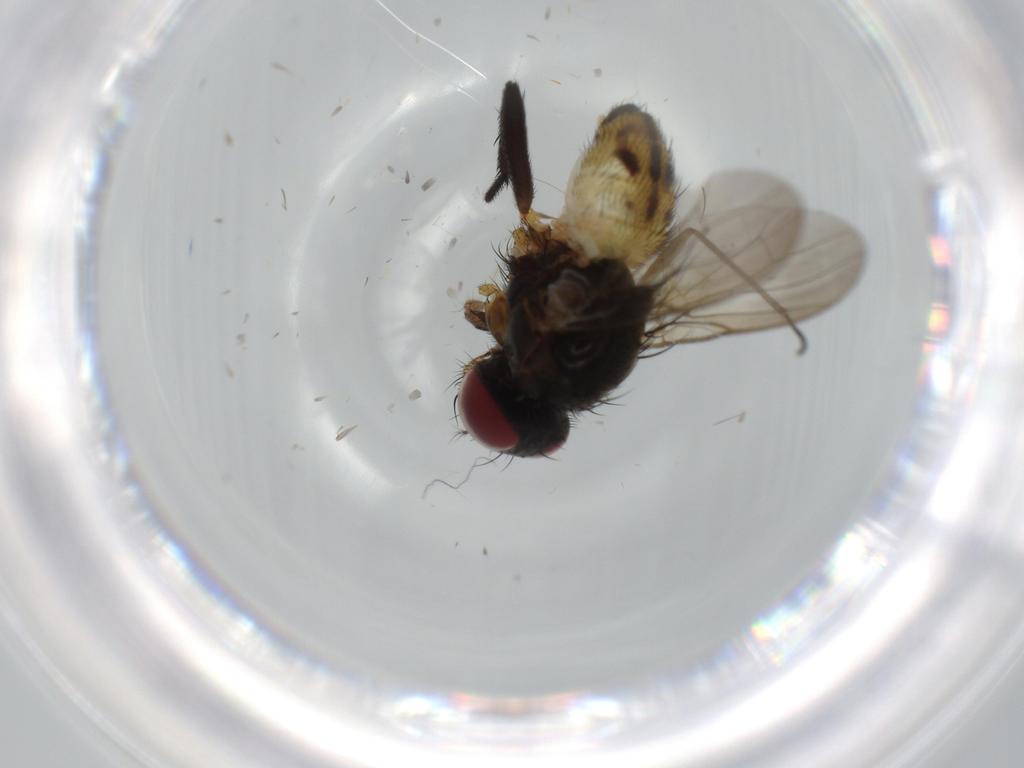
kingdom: Animalia
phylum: Arthropoda
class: Insecta
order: Diptera
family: Anthomyiidae
